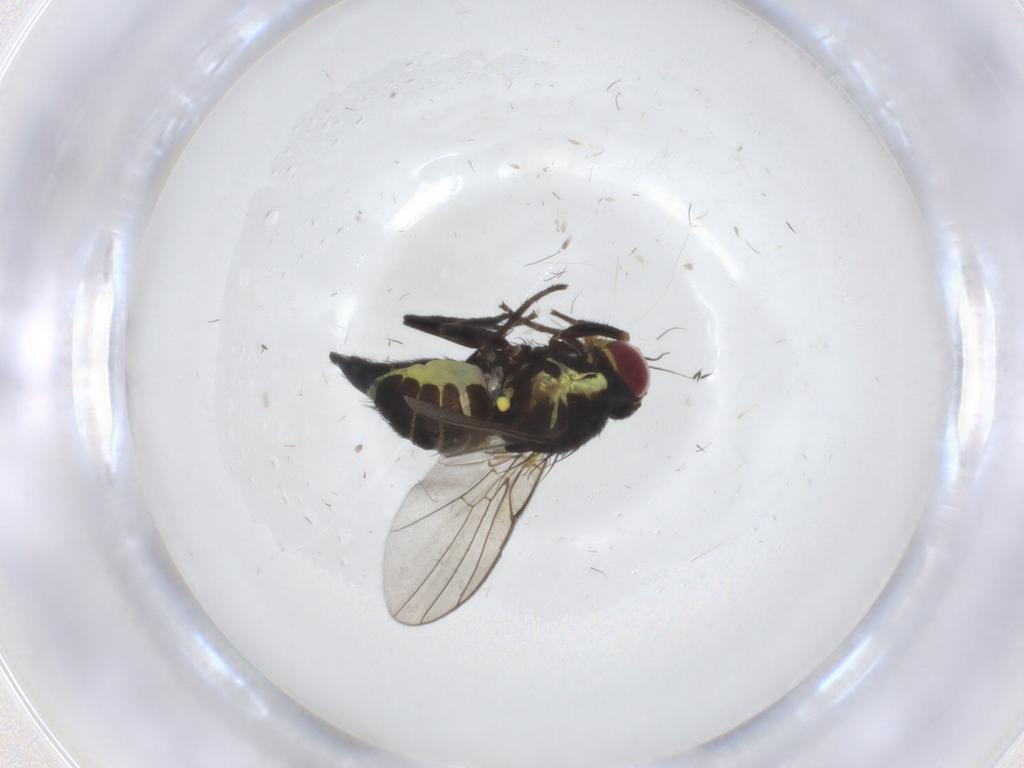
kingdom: Animalia
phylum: Arthropoda
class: Insecta
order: Diptera
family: Agromyzidae
